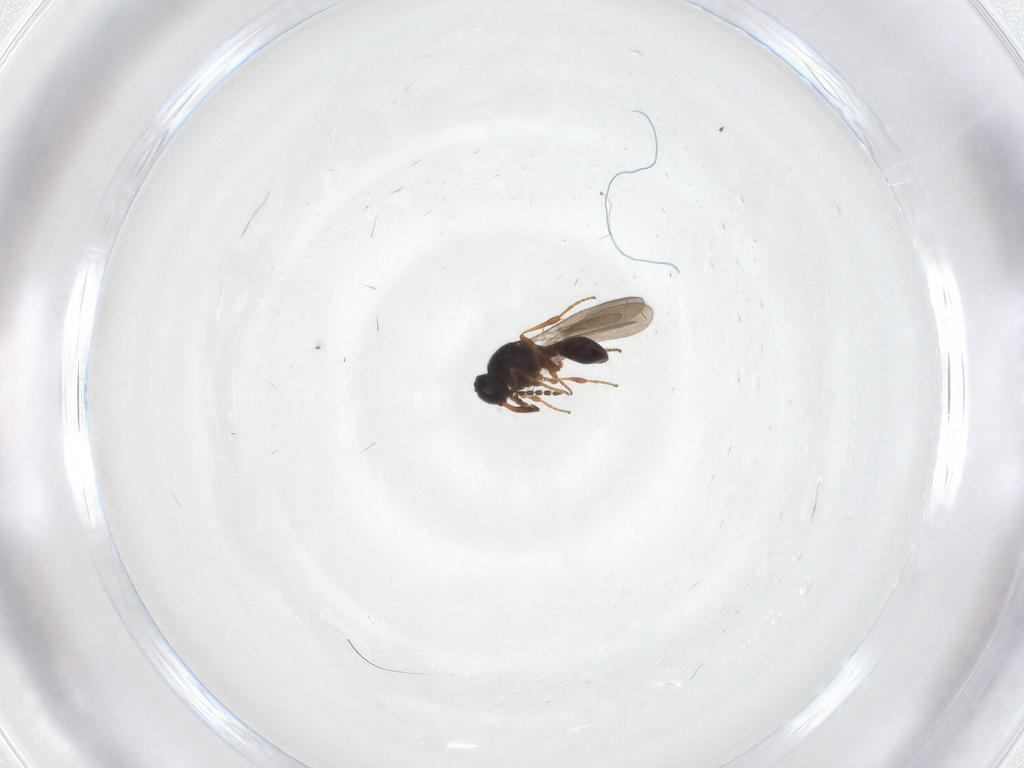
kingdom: Animalia
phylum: Arthropoda
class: Insecta
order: Hymenoptera
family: Platygastridae
